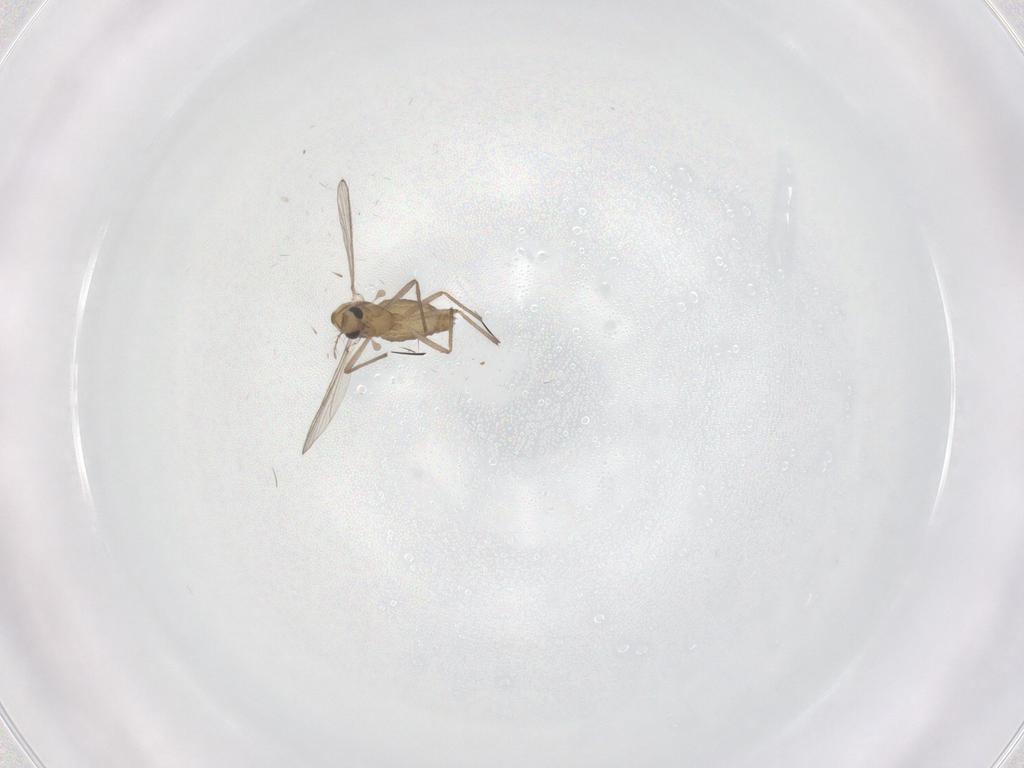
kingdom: Animalia
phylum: Arthropoda
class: Insecta
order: Diptera
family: Chironomidae
